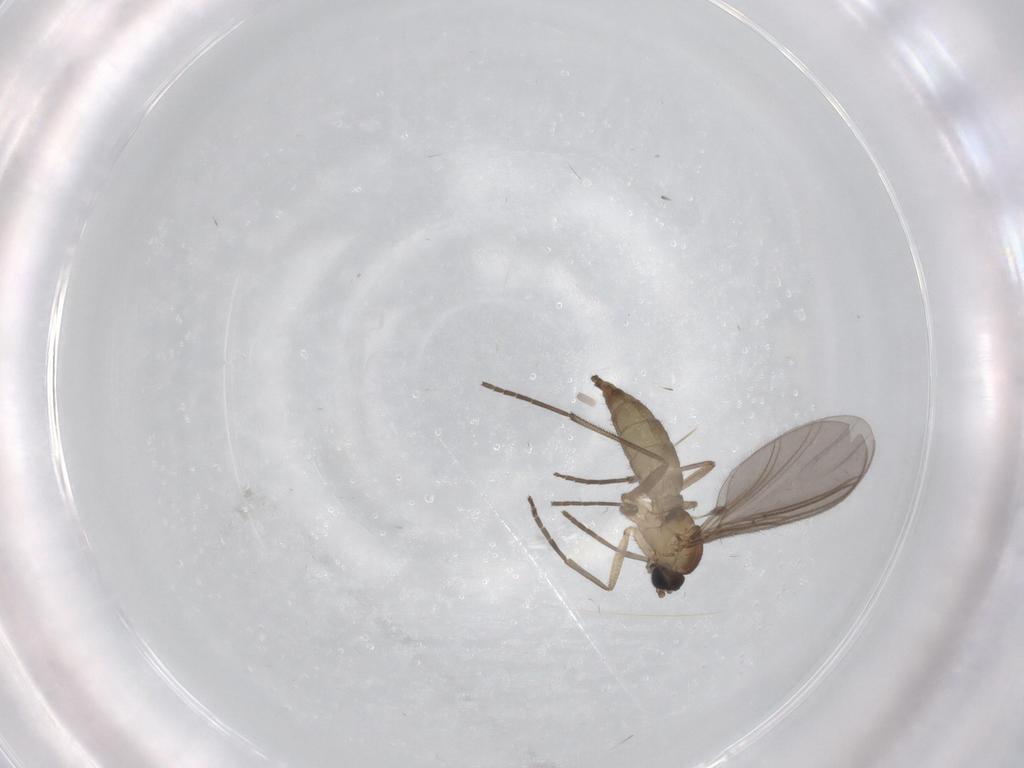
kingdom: Animalia
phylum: Arthropoda
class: Insecta
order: Diptera
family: Sciaridae
